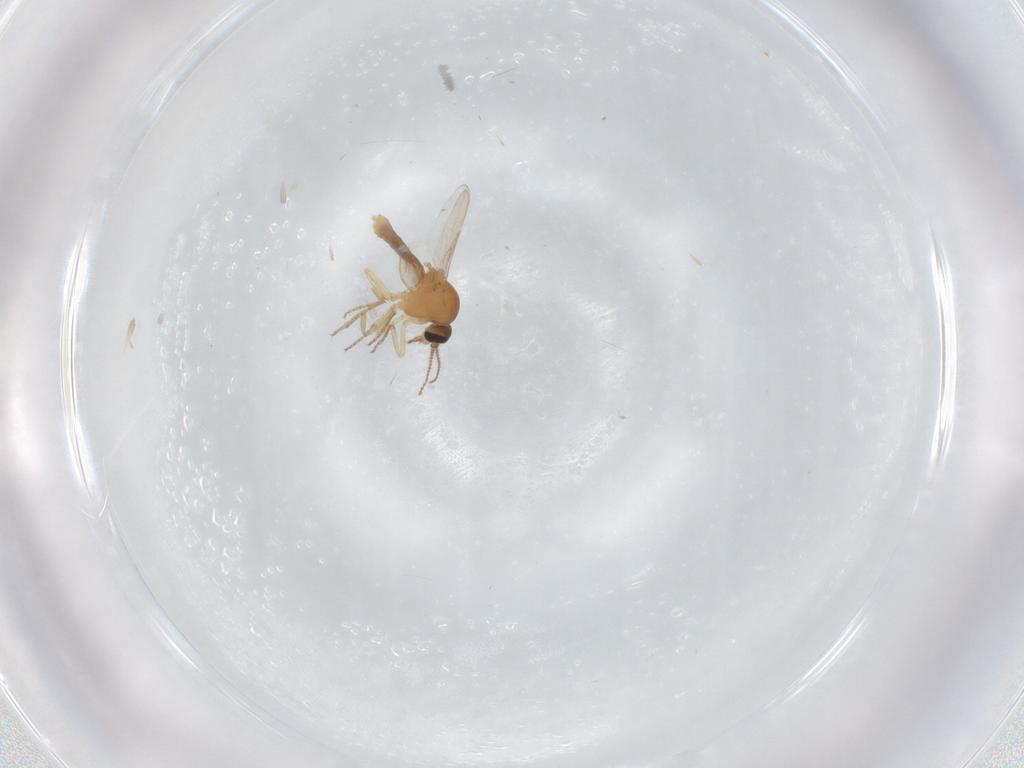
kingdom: Animalia
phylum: Arthropoda
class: Insecta
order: Diptera
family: Ceratopogonidae
